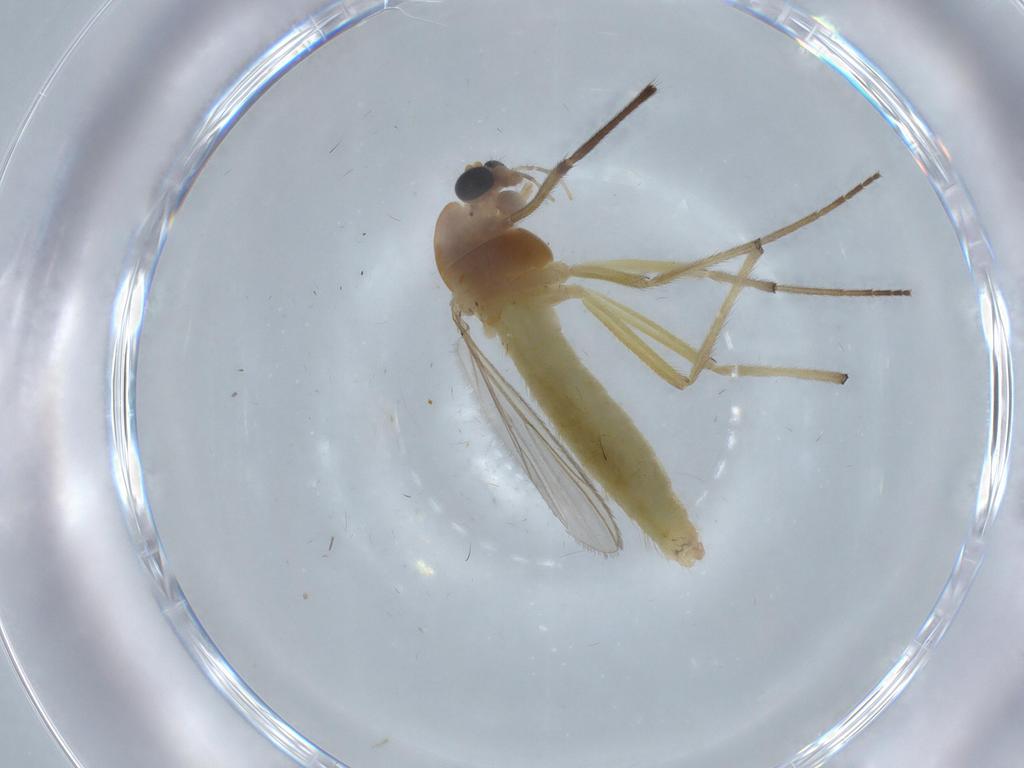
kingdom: Animalia
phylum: Arthropoda
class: Insecta
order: Diptera
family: Chironomidae
